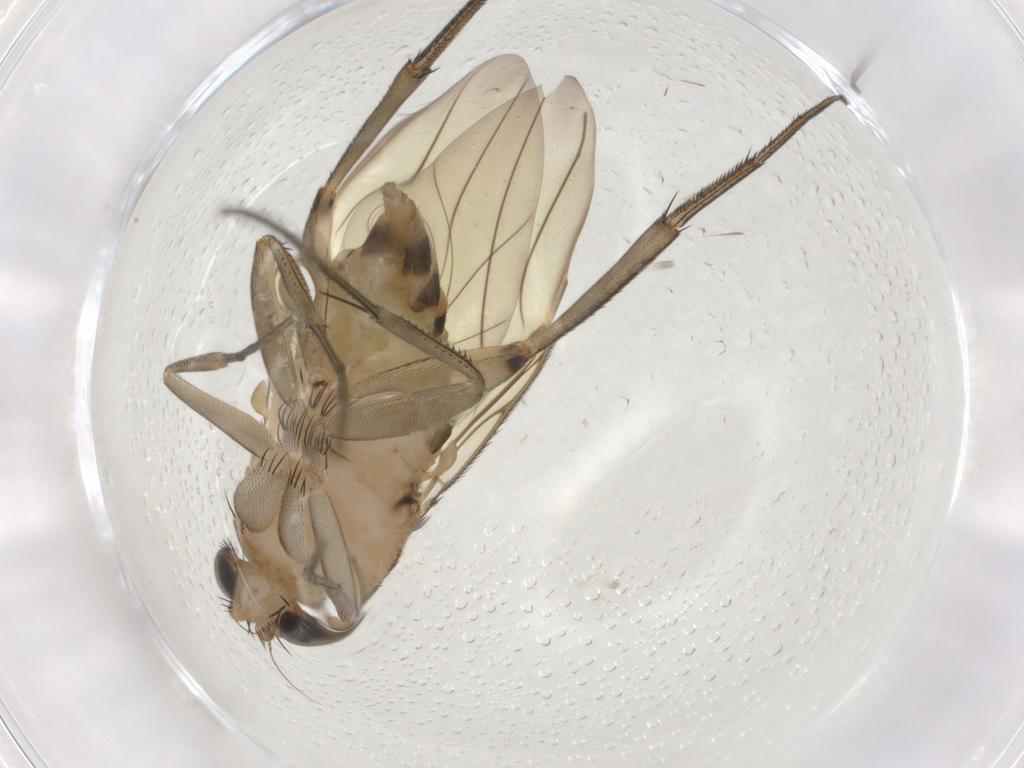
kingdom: Animalia
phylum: Arthropoda
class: Insecta
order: Diptera
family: Phoridae
